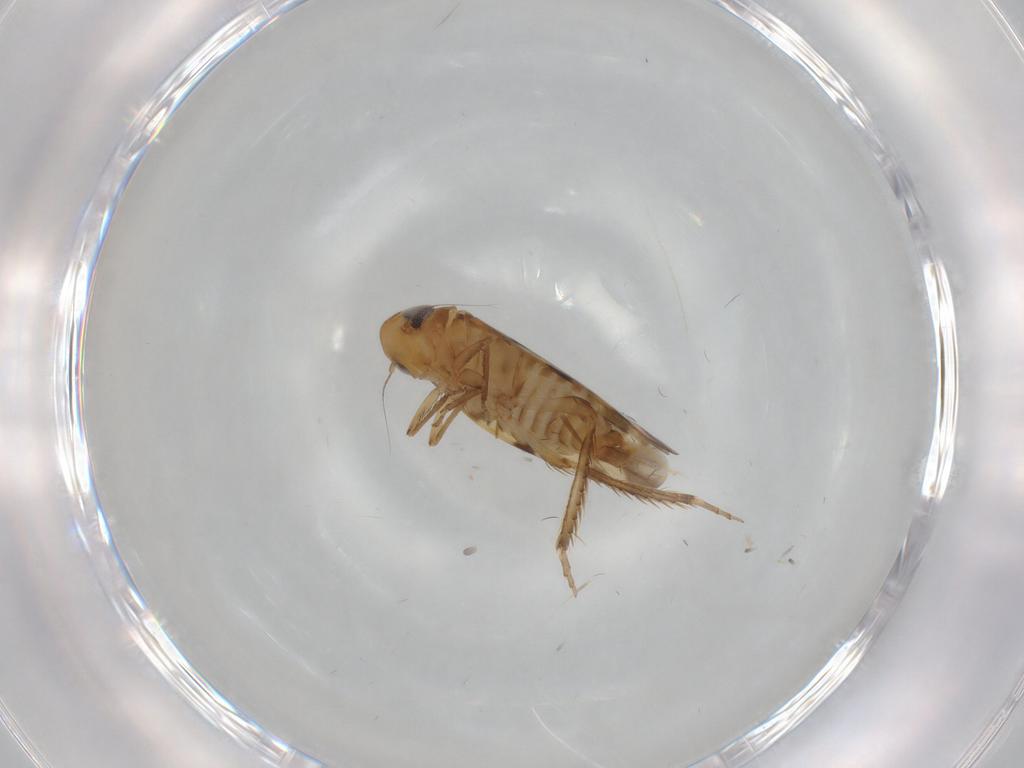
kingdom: Animalia
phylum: Arthropoda
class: Insecta
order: Hemiptera
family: Cicadellidae
